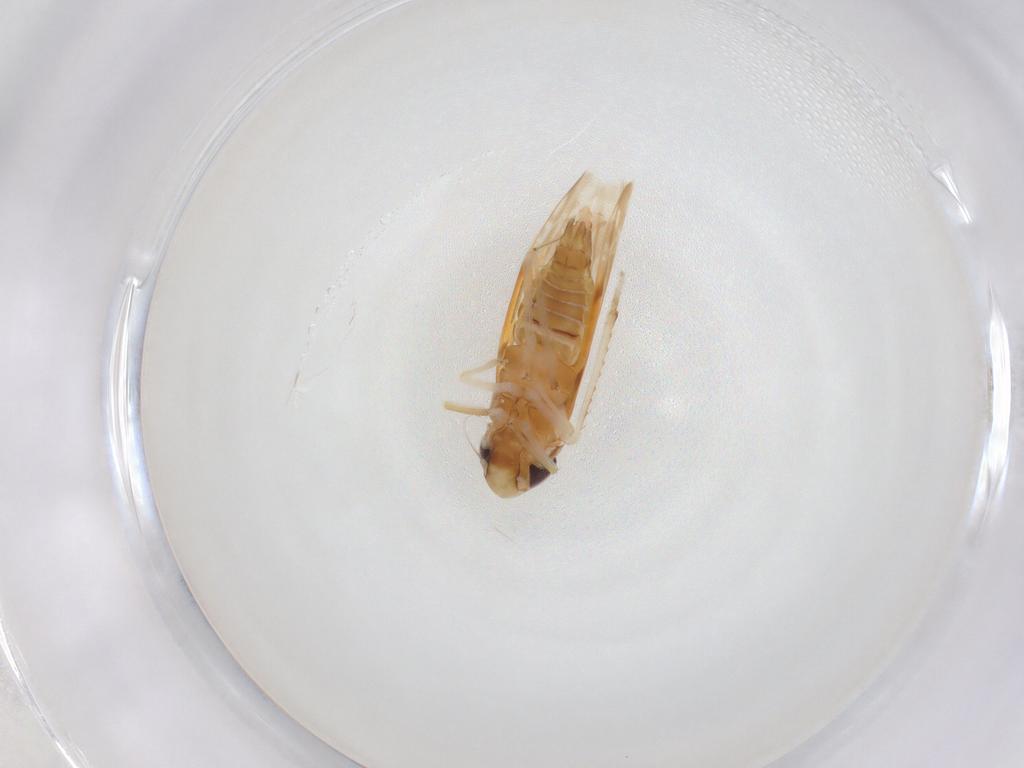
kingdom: Animalia
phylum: Arthropoda
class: Insecta
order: Hemiptera
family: Cicadellidae
